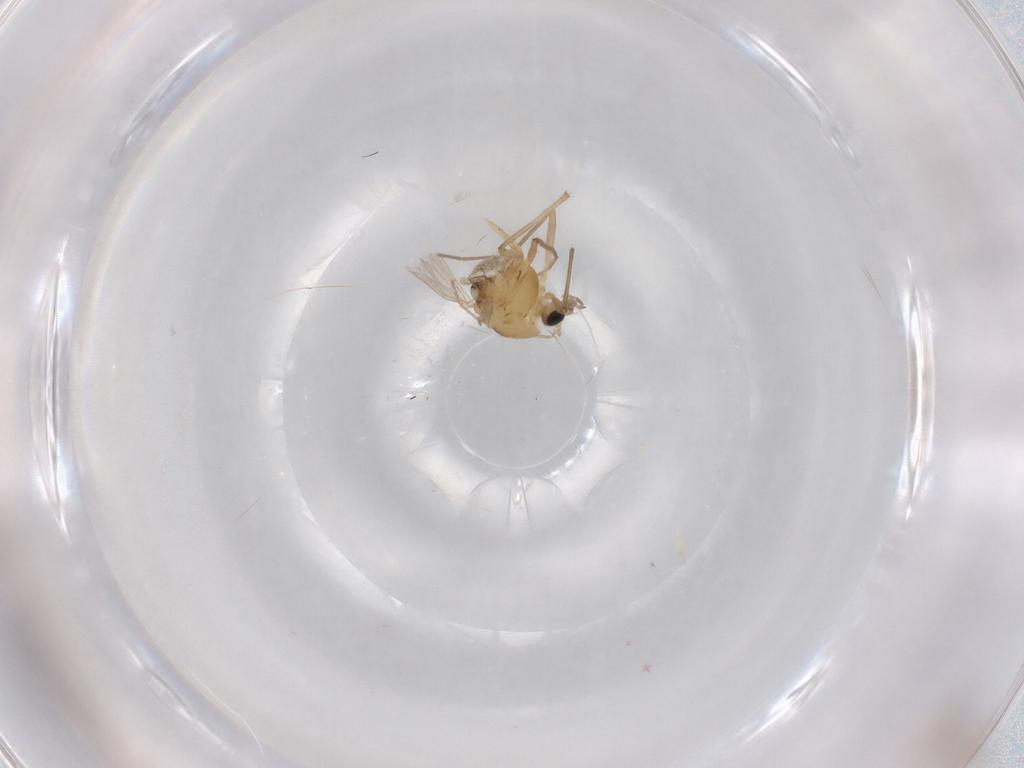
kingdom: Animalia
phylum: Arthropoda
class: Insecta
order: Diptera
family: Chironomidae
